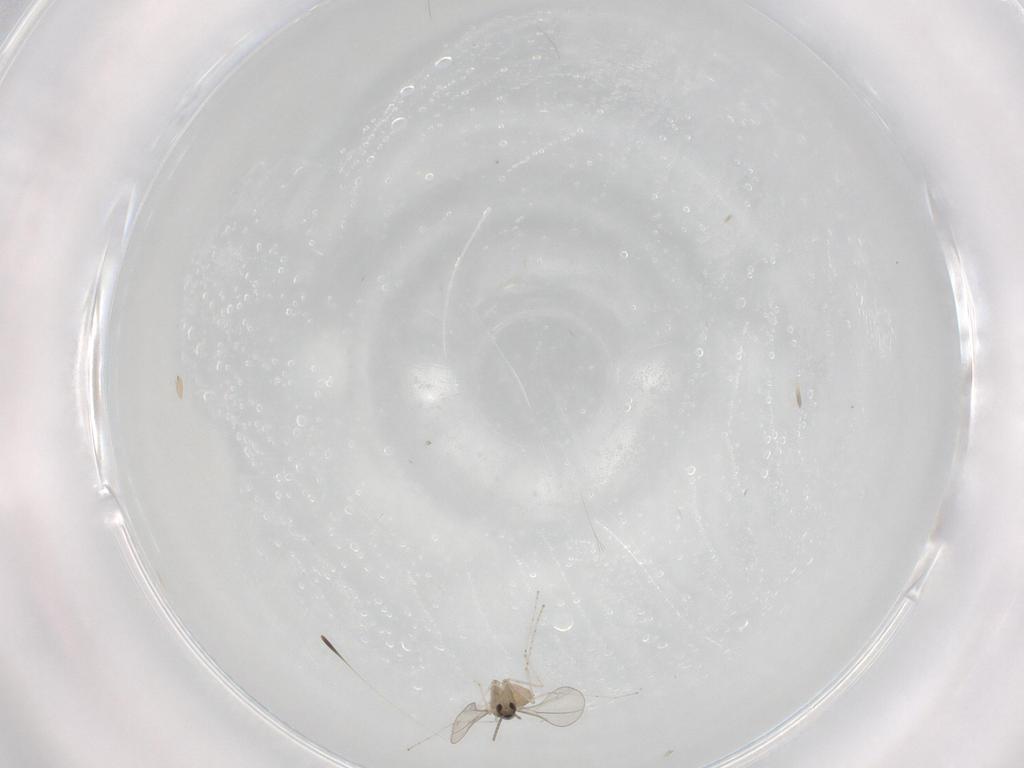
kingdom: Animalia
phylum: Arthropoda
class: Insecta
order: Diptera
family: Cecidomyiidae
